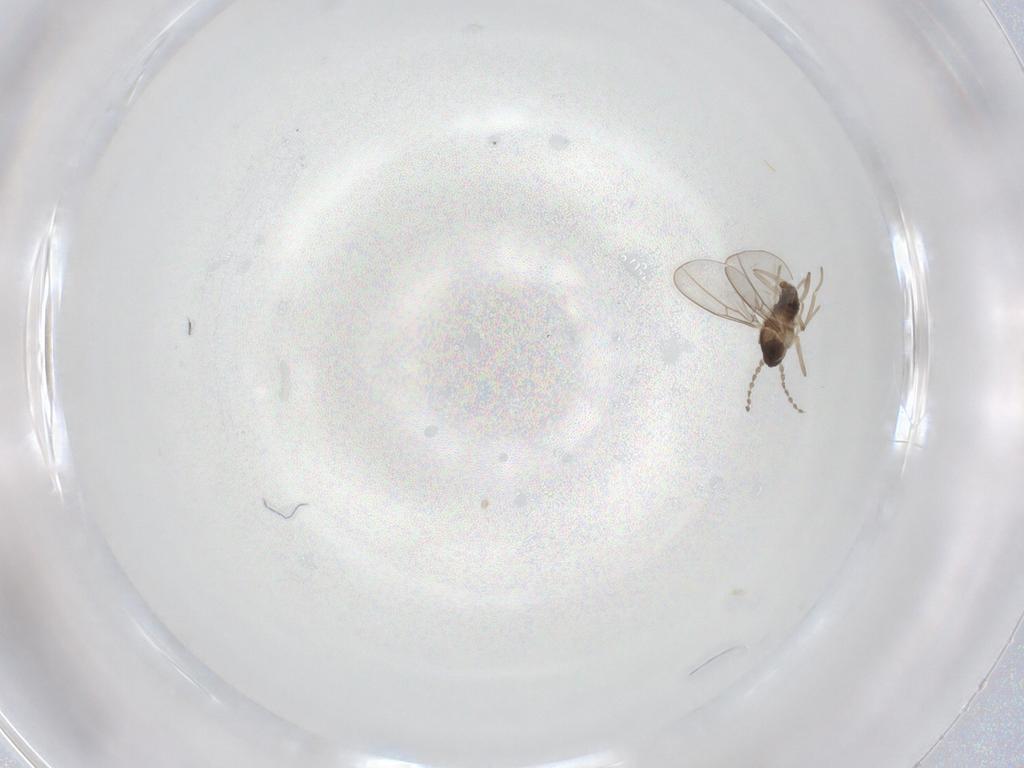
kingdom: Animalia
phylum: Arthropoda
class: Insecta
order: Diptera
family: Cecidomyiidae
